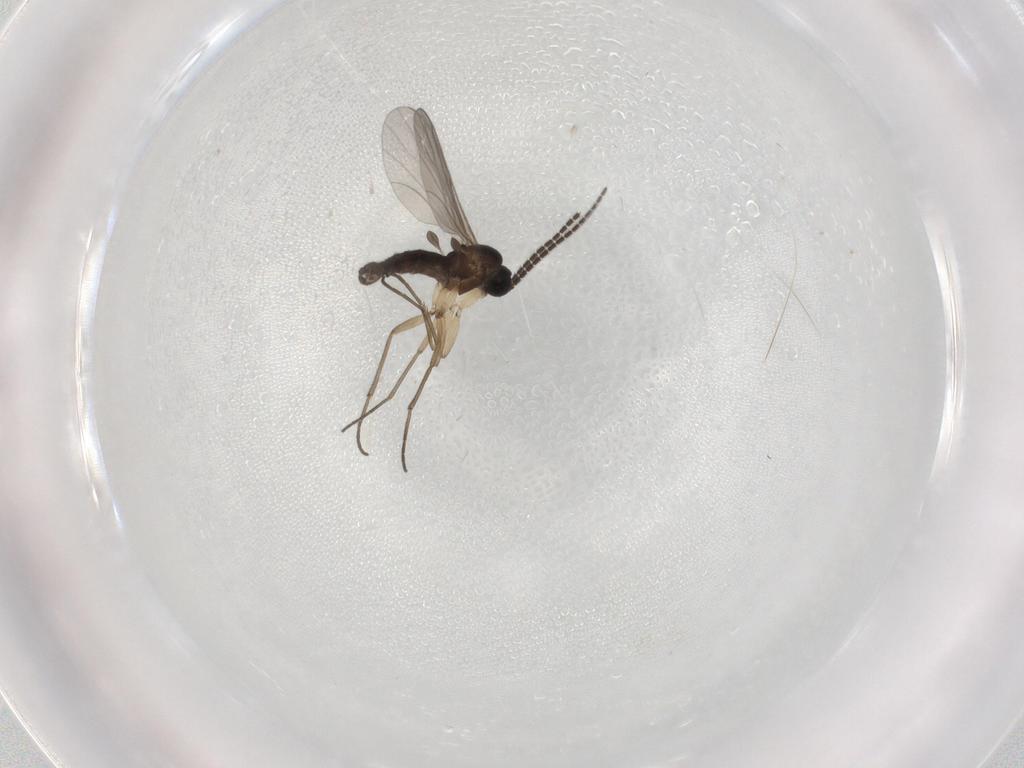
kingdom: Animalia
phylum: Arthropoda
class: Insecta
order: Diptera
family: Sciaridae
